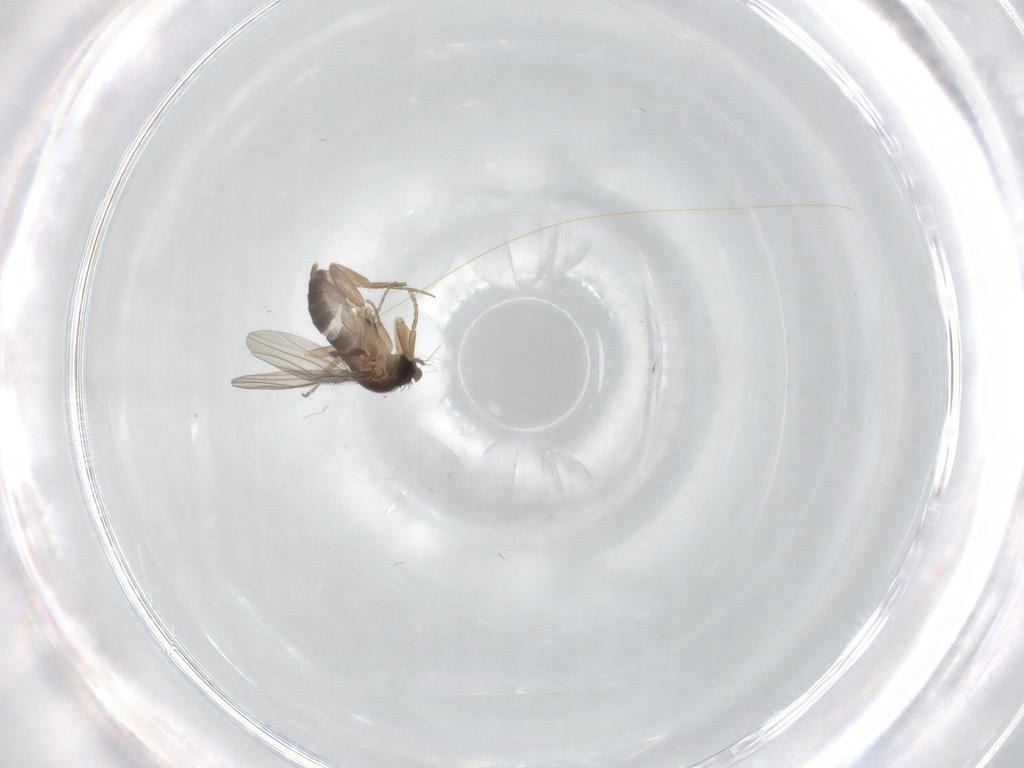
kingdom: Animalia
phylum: Arthropoda
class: Insecta
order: Diptera
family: Phoridae
